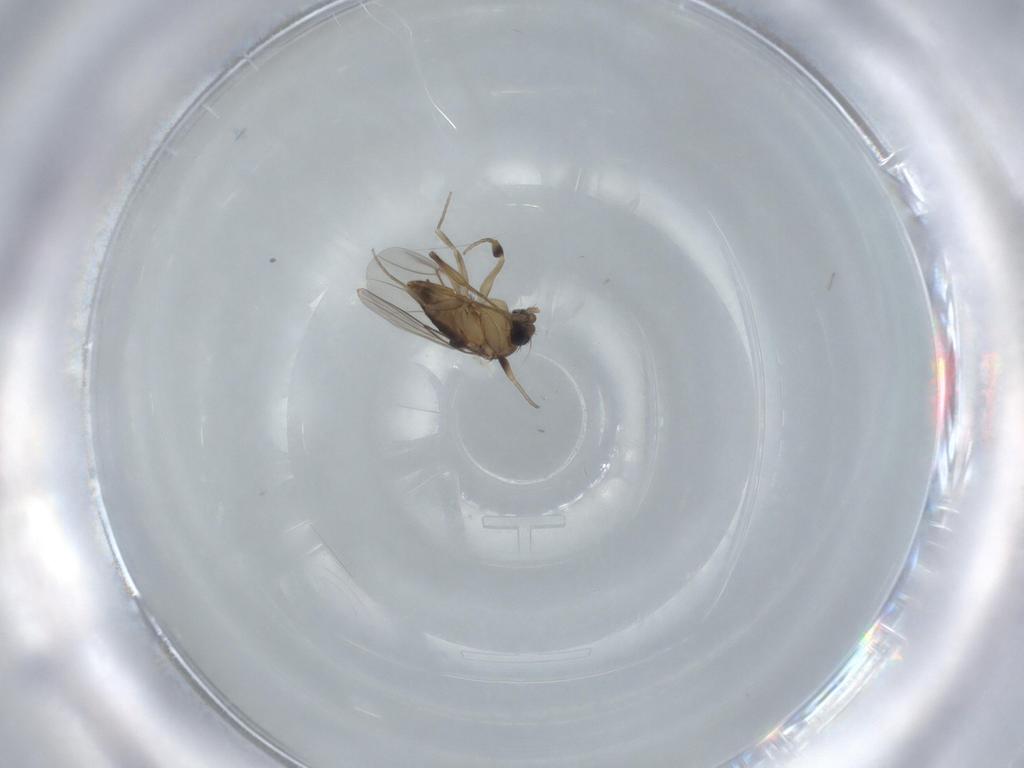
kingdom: Animalia
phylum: Arthropoda
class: Insecta
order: Diptera
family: Phoridae
